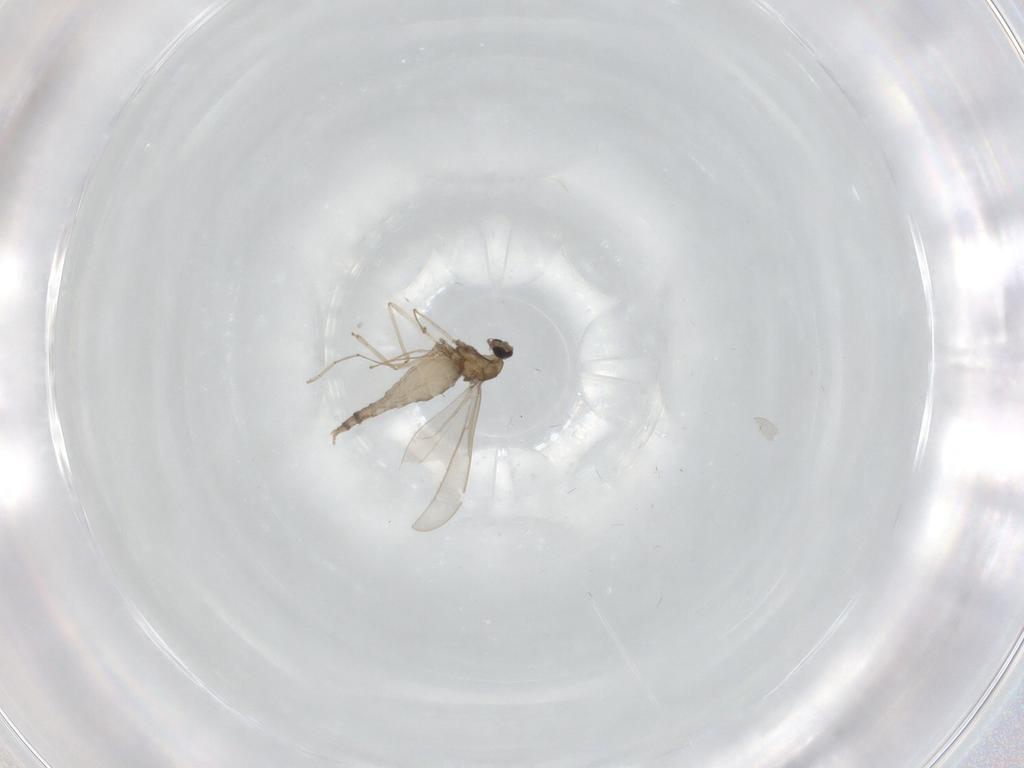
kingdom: Animalia
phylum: Arthropoda
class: Insecta
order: Diptera
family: Cecidomyiidae
